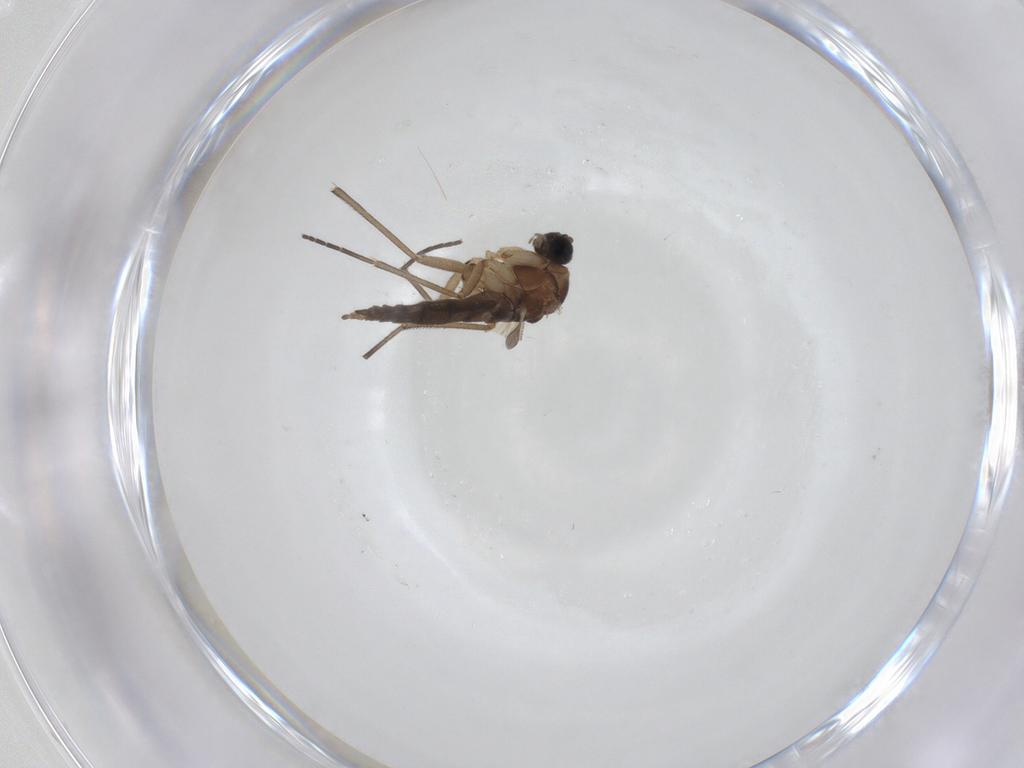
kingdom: Animalia
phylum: Arthropoda
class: Insecta
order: Diptera
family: Sciaridae
